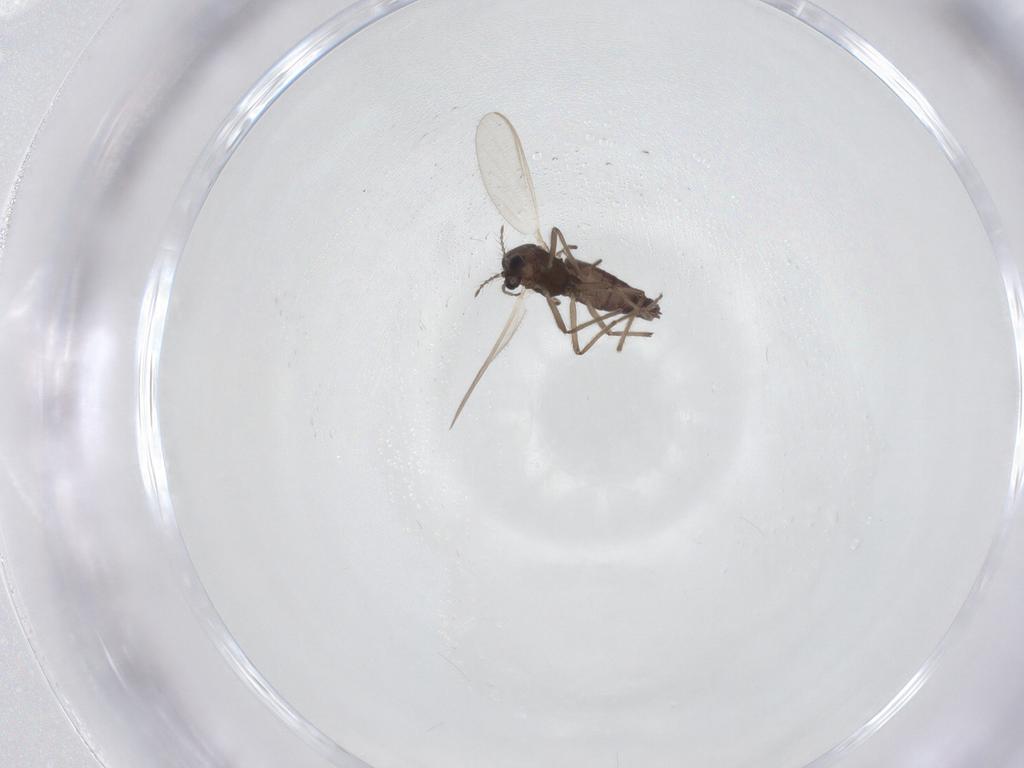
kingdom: Animalia
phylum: Arthropoda
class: Insecta
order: Diptera
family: Chironomidae
